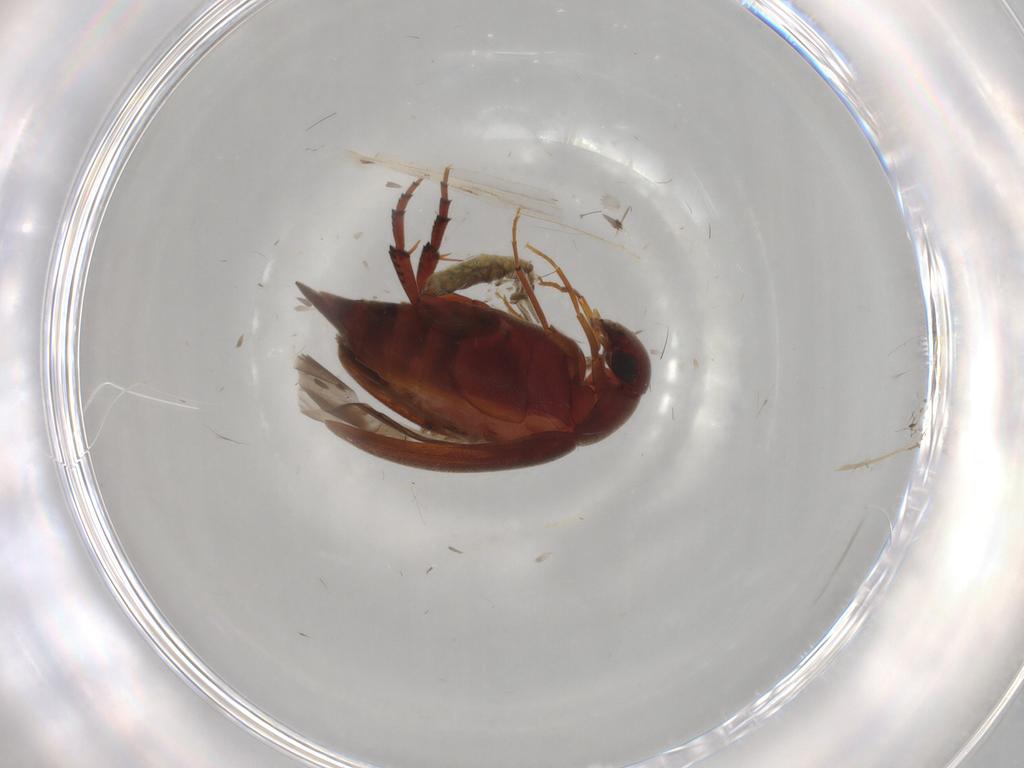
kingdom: Animalia
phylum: Arthropoda
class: Insecta
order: Coleoptera
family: Mordellidae
